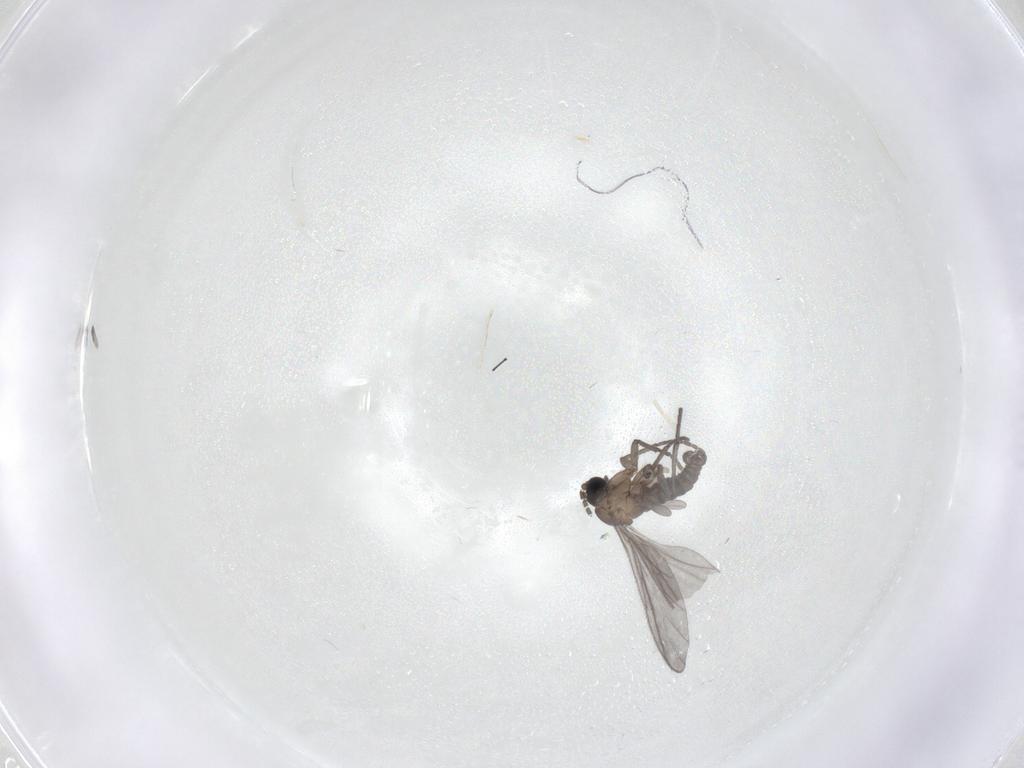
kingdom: Animalia
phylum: Arthropoda
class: Insecta
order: Diptera
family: Sciaridae
